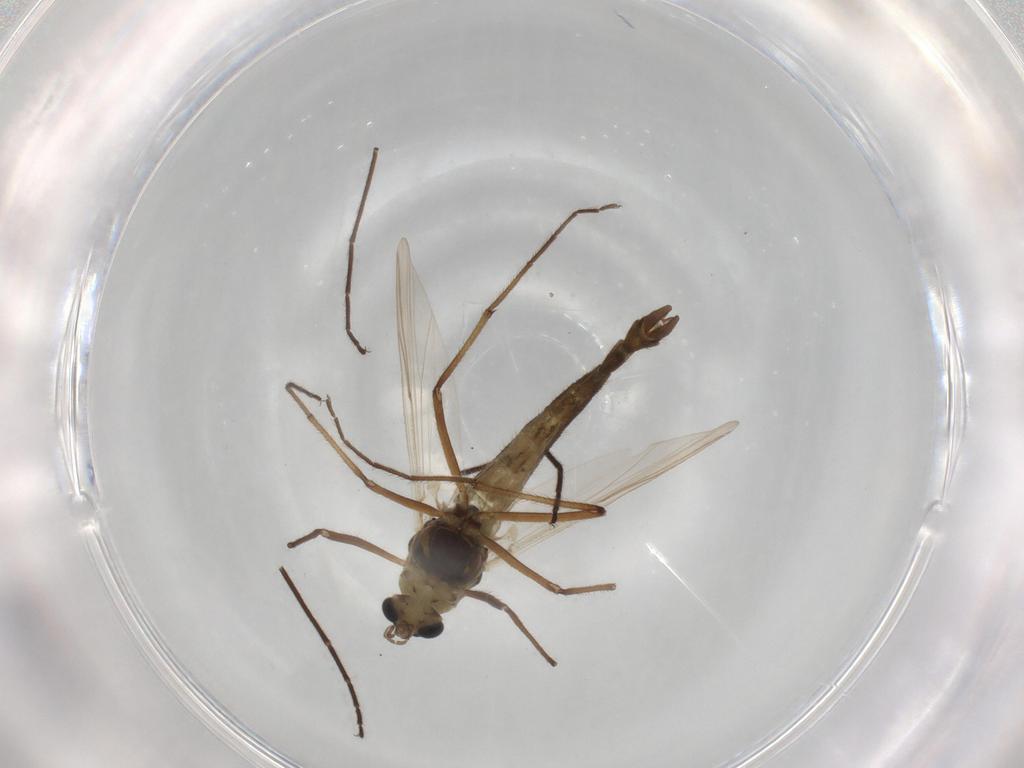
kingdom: Animalia
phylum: Arthropoda
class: Insecta
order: Diptera
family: Sphaeroceridae
